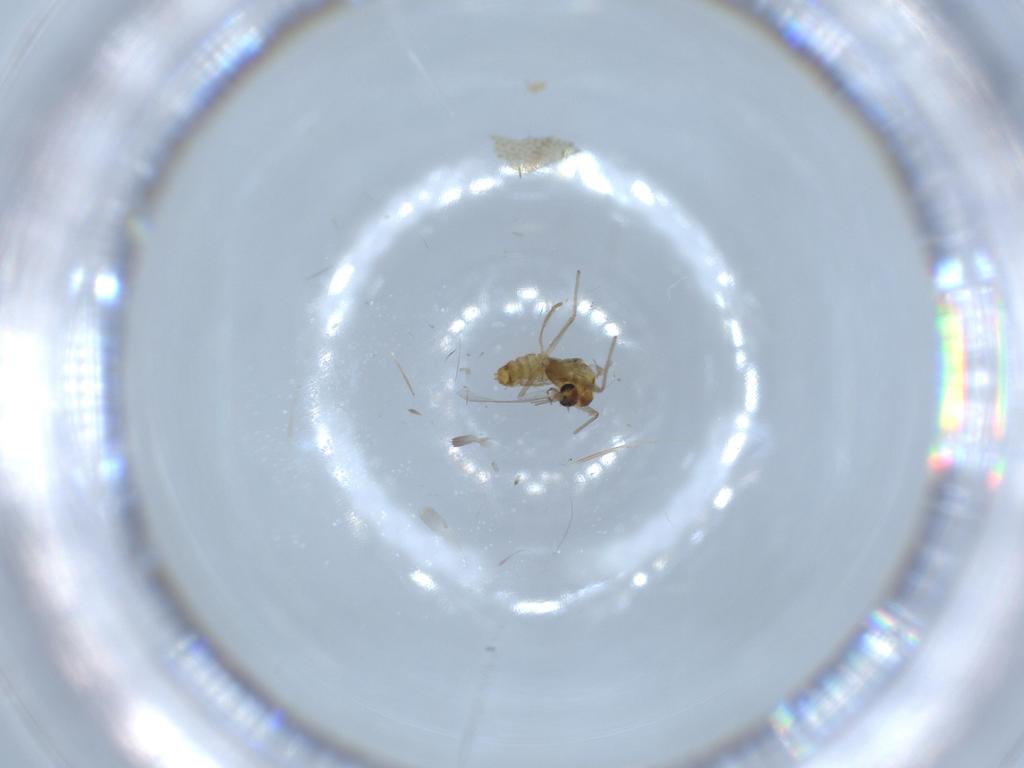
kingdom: Animalia
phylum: Arthropoda
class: Insecta
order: Diptera
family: Chironomidae
